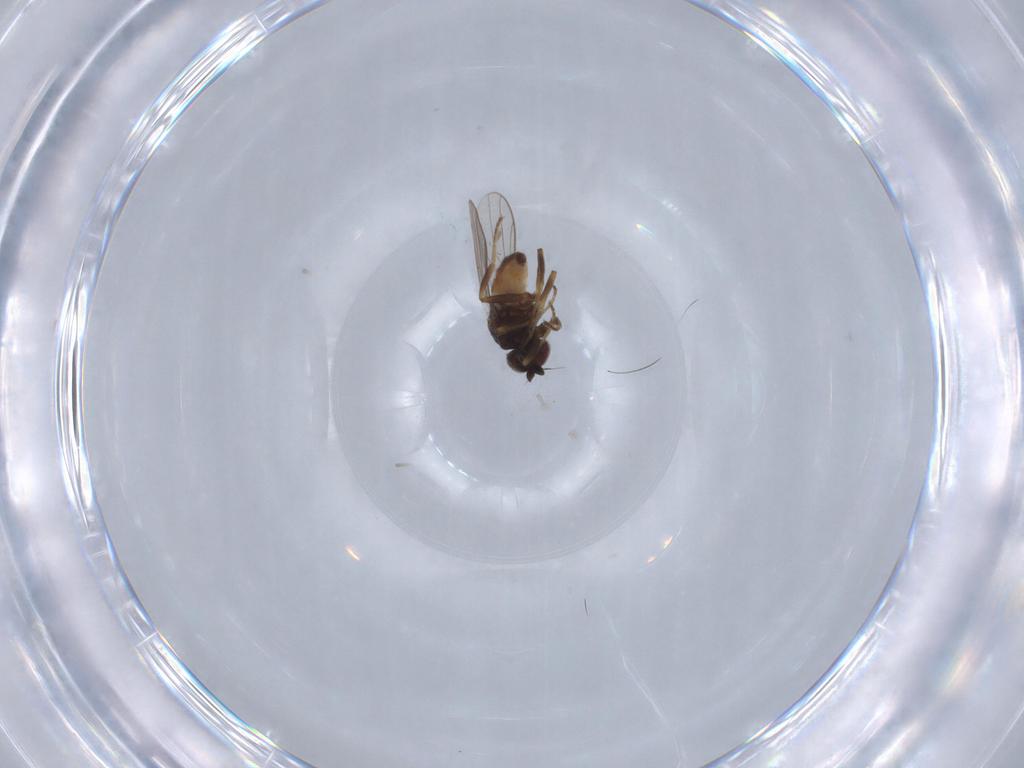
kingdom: Animalia
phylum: Arthropoda
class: Insecta
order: Diptera
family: Chloropidae
